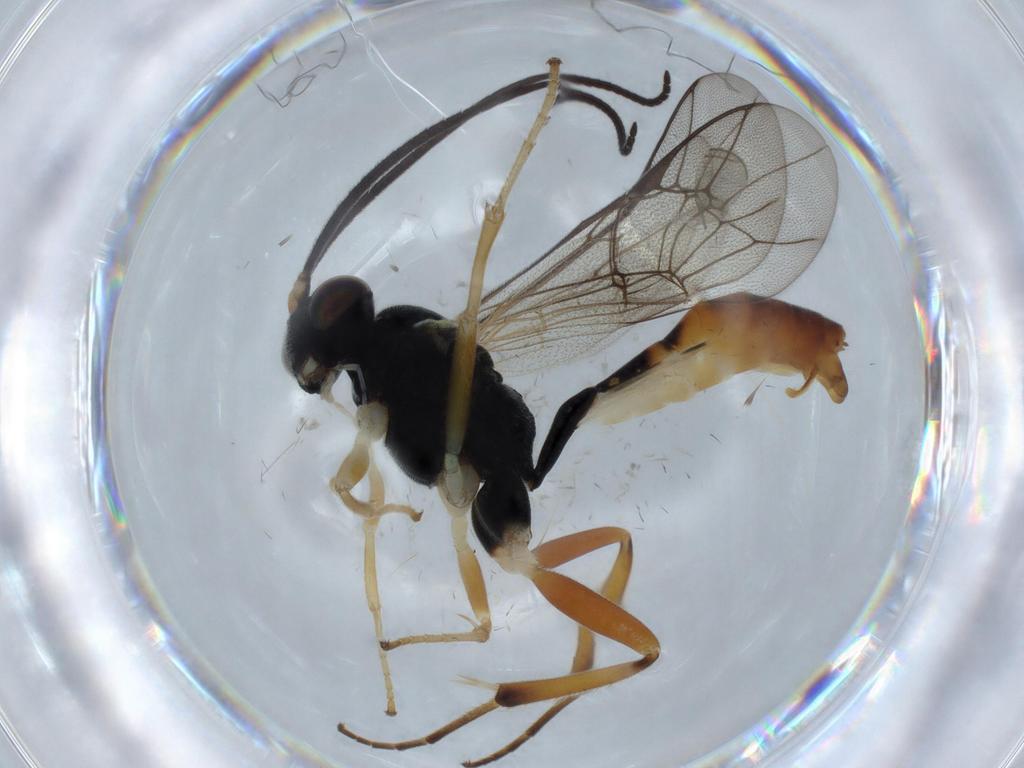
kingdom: Animalia
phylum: Arthropoda
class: Insecta
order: Hymenoptera
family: Ichneumonidae
